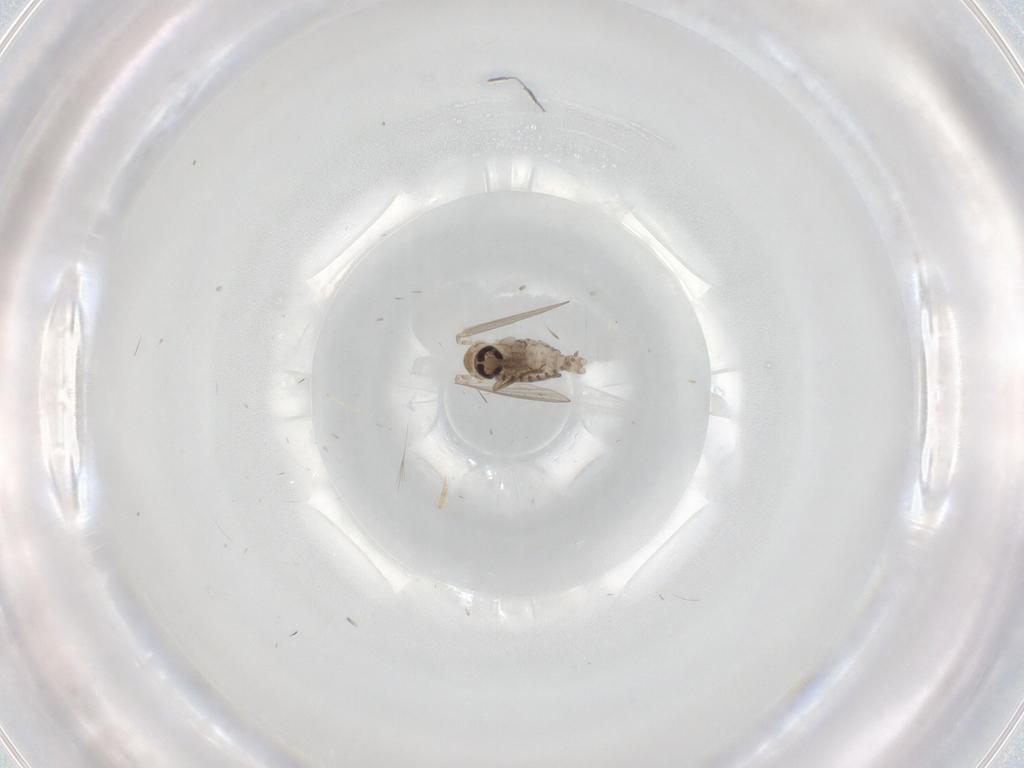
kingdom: Animalia
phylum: Arthropoda
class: Insecta
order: Diptera
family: Psychodidae
